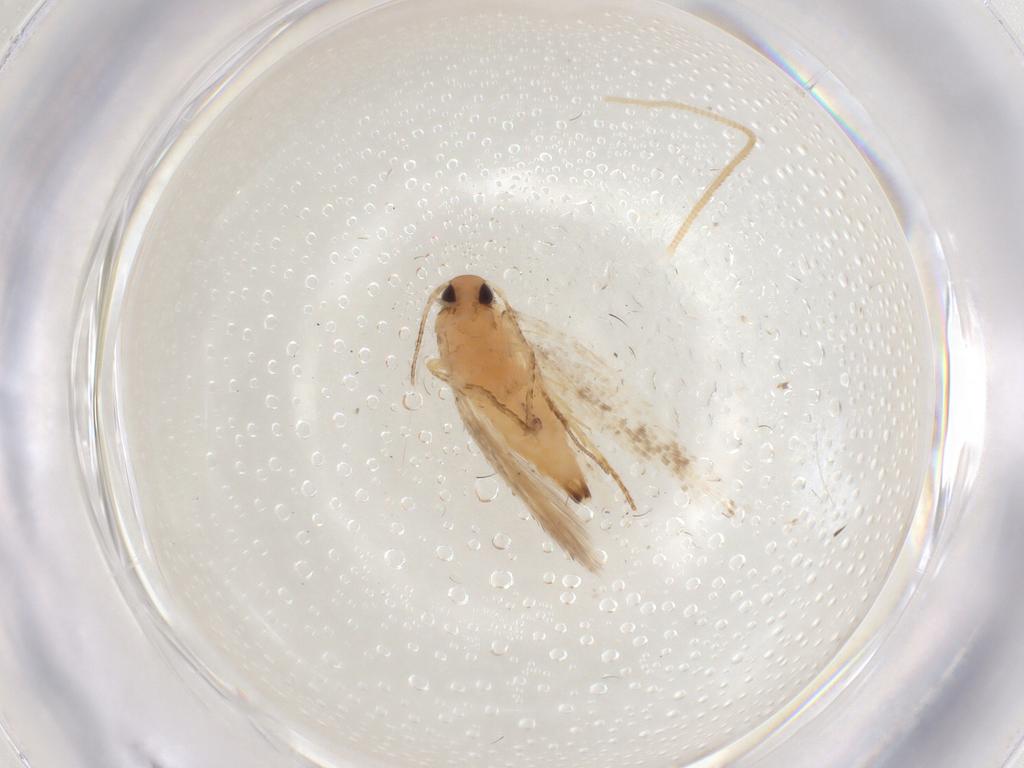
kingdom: Animalia
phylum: Arthropoda
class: Insecta
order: Lepidoptera
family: Gelechiidae
